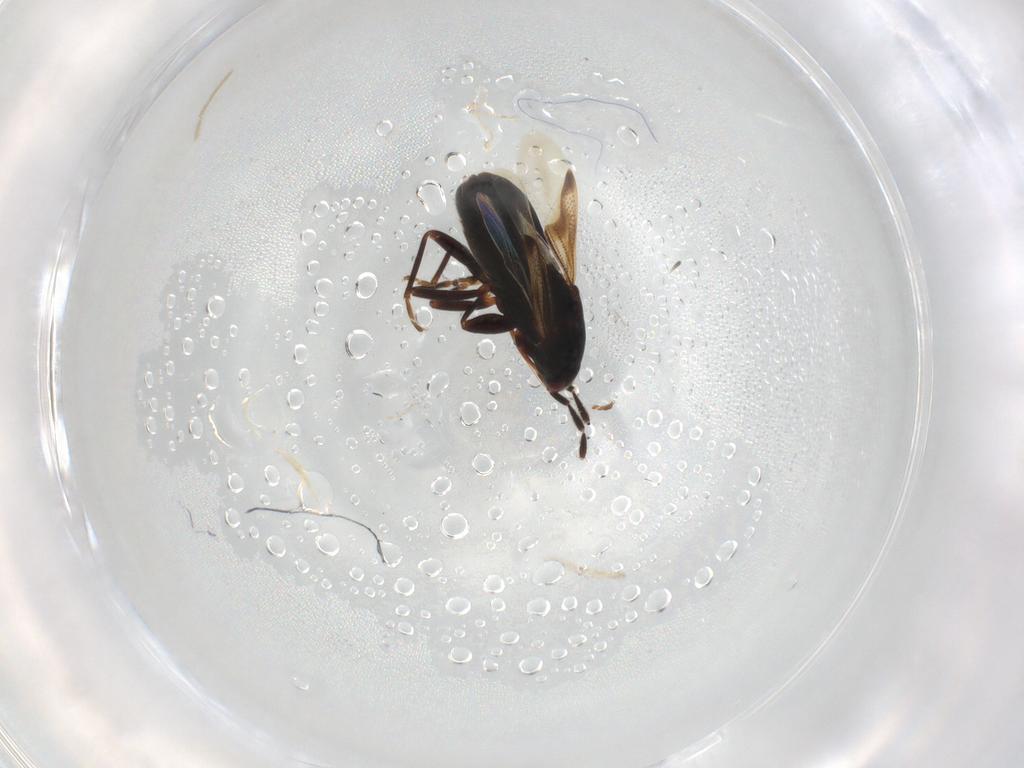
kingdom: Animalia
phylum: Arthropoda
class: Insecta
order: Hemiptera
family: Rhyparochromidae
